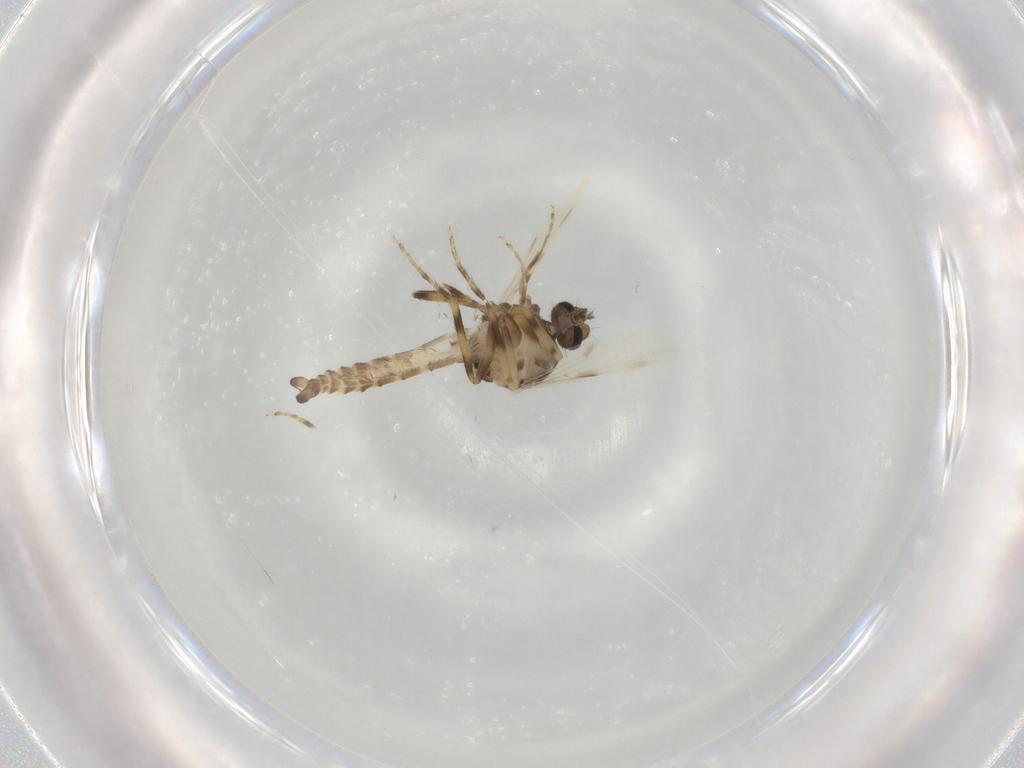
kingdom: Animalia
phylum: Arthropoda
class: Insecta
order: Diptera
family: Ceratopogonidae
